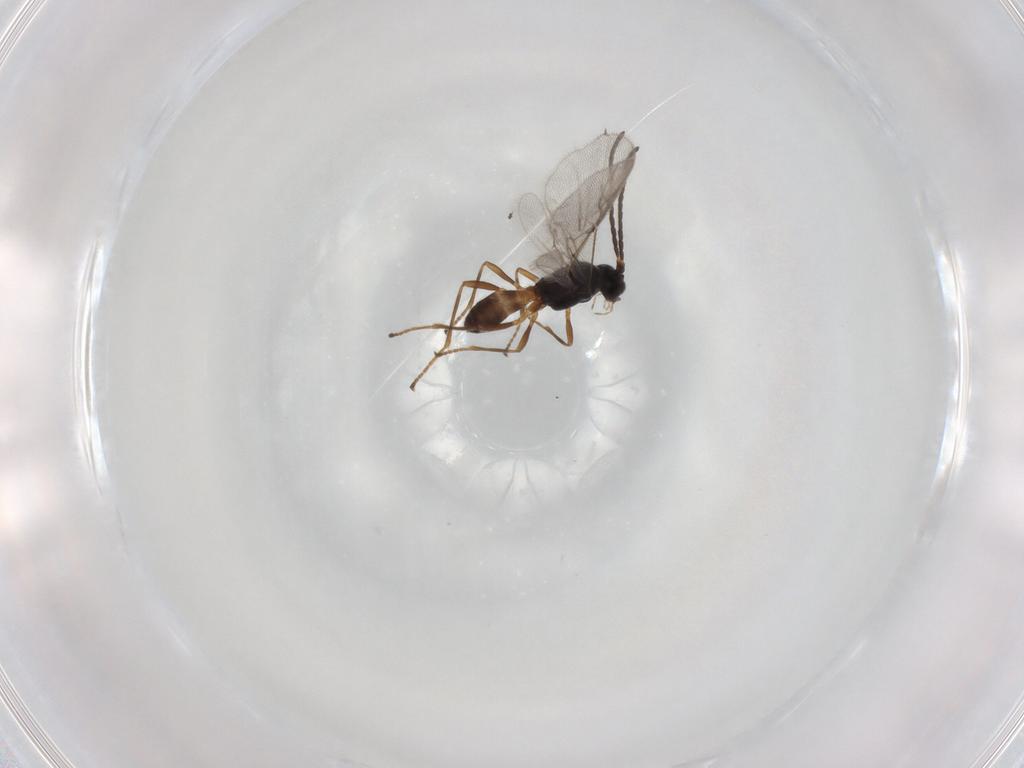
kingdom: Animalia
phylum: Arthropoda
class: Insecta
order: Hymenoptera
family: Braconidae
